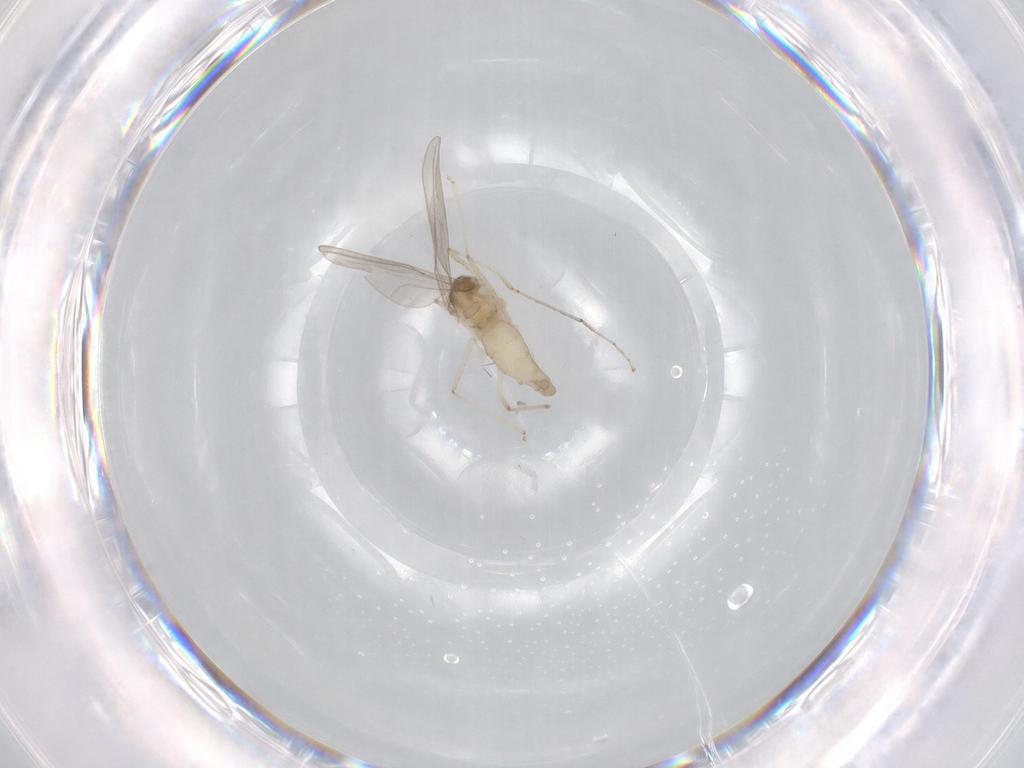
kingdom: Animalia
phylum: Arthropoda
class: Insecta
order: Diptera
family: Cecidomyiidae
